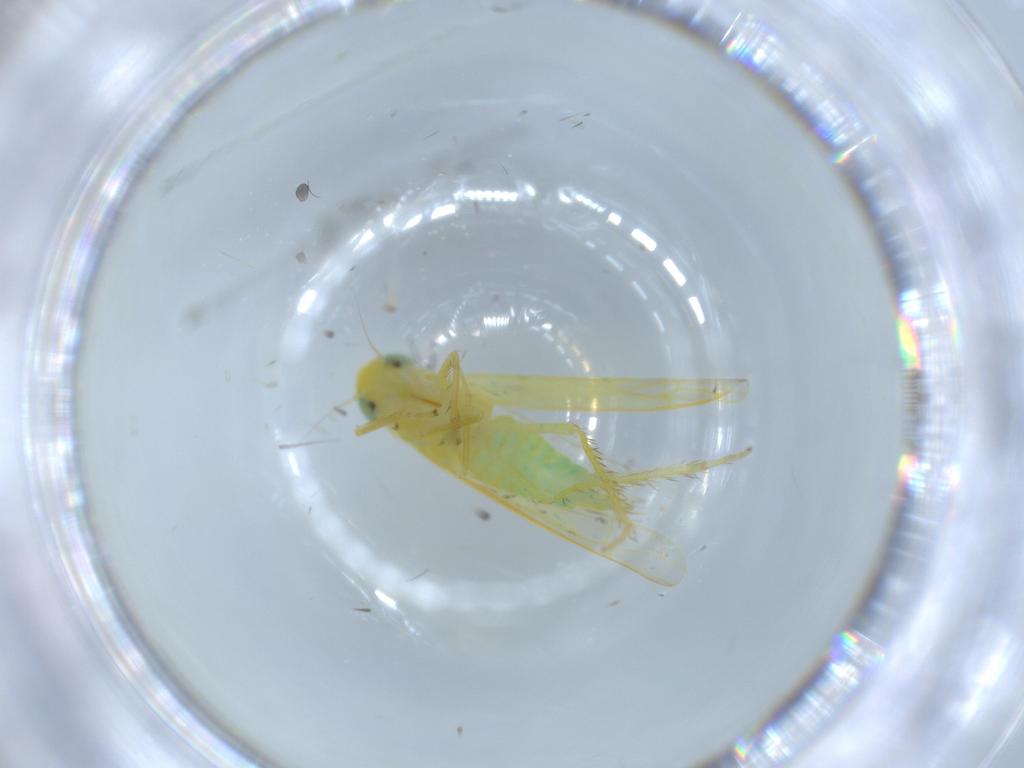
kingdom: Animalia
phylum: Arthropoda
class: Insecta
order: Hemiptera
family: Cicadellidae
